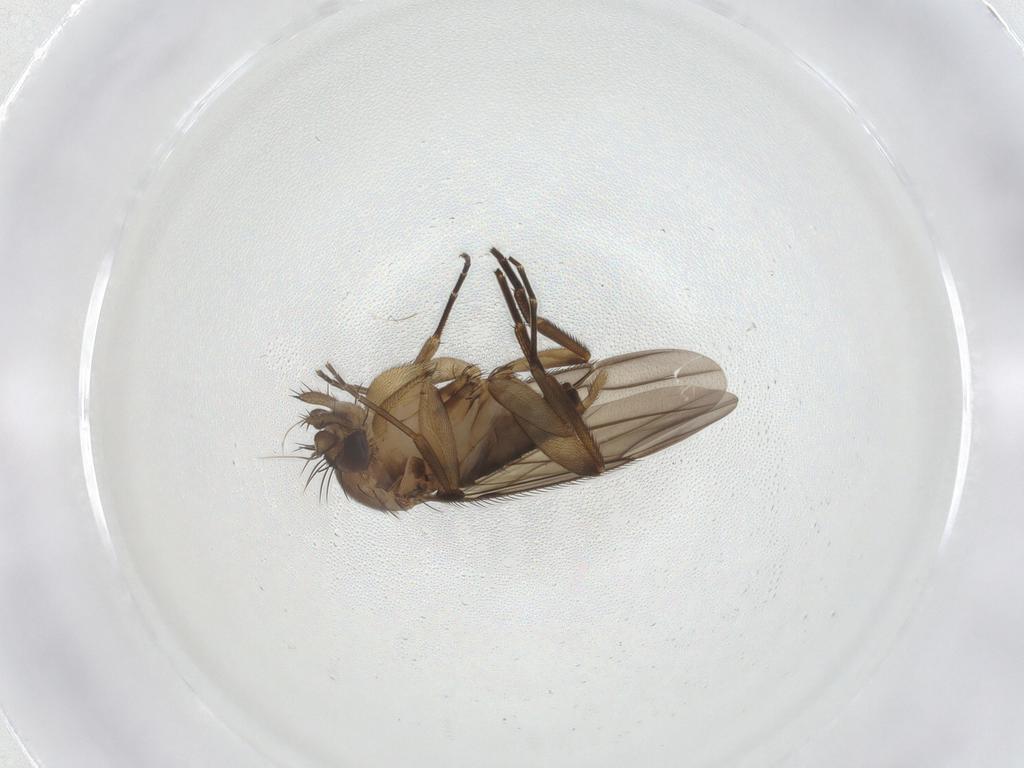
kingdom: Animalia
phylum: Arthropoda
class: Insecta
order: Diptera
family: Phoridae
